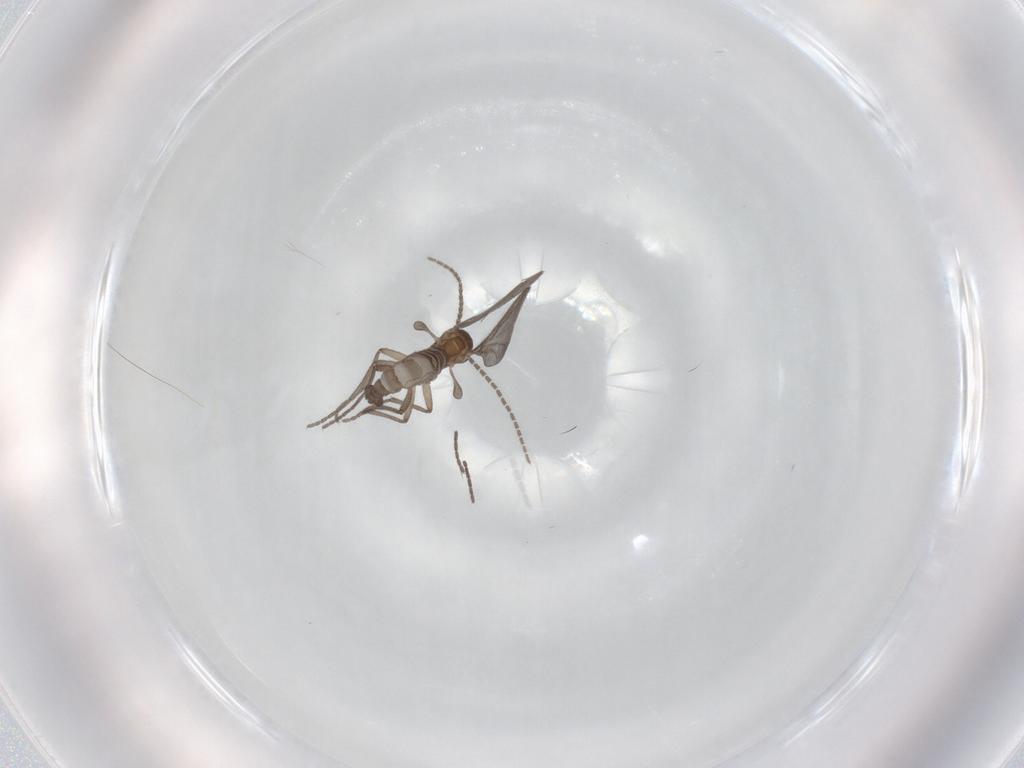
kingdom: Animalia
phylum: Arthropoda
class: Insecta
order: Diptera
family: Sciaridae
